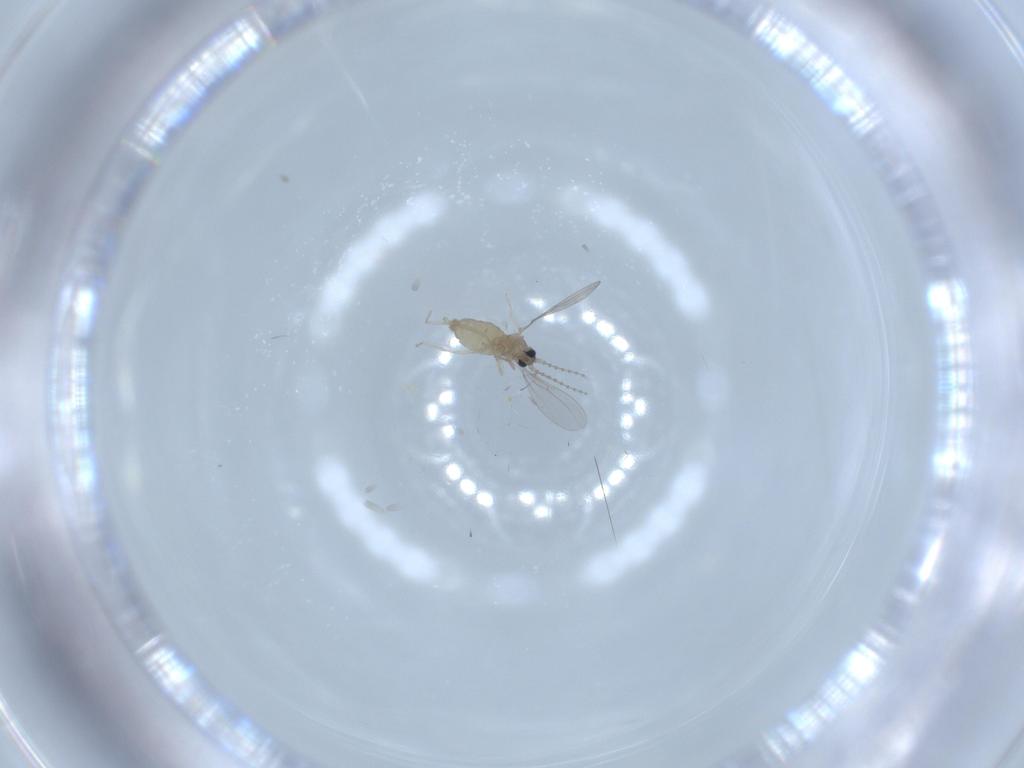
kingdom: Animalia
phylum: Arthropoda
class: Insecta
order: Diptera
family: Cecidomyiidae
